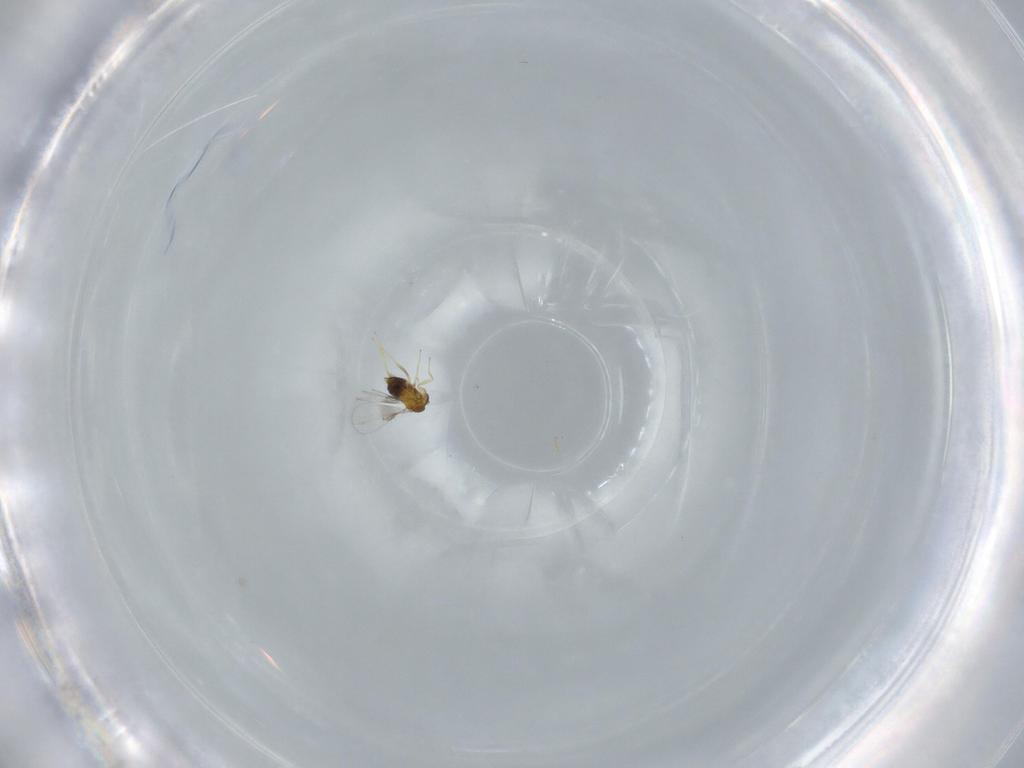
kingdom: Animalia
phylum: Arthropoda
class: Insecta
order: Hymenoptera
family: Trichogrammatidae
